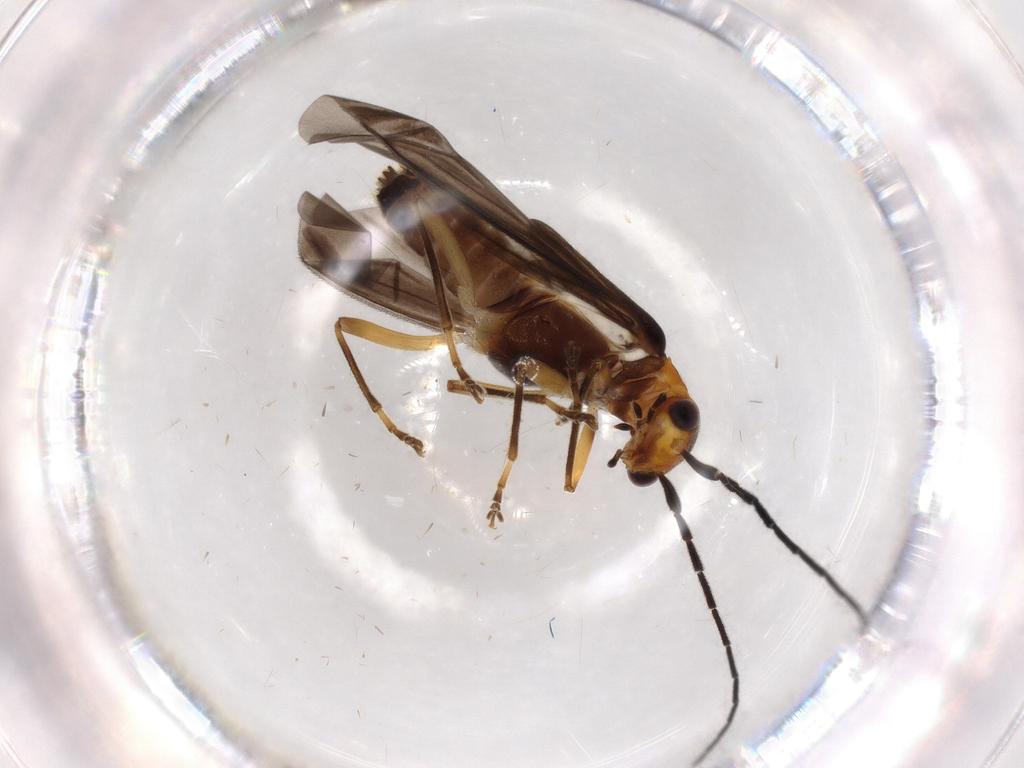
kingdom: Animalia
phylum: Arthropoda
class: Insecta
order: Coleoptera
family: Cantharidae
